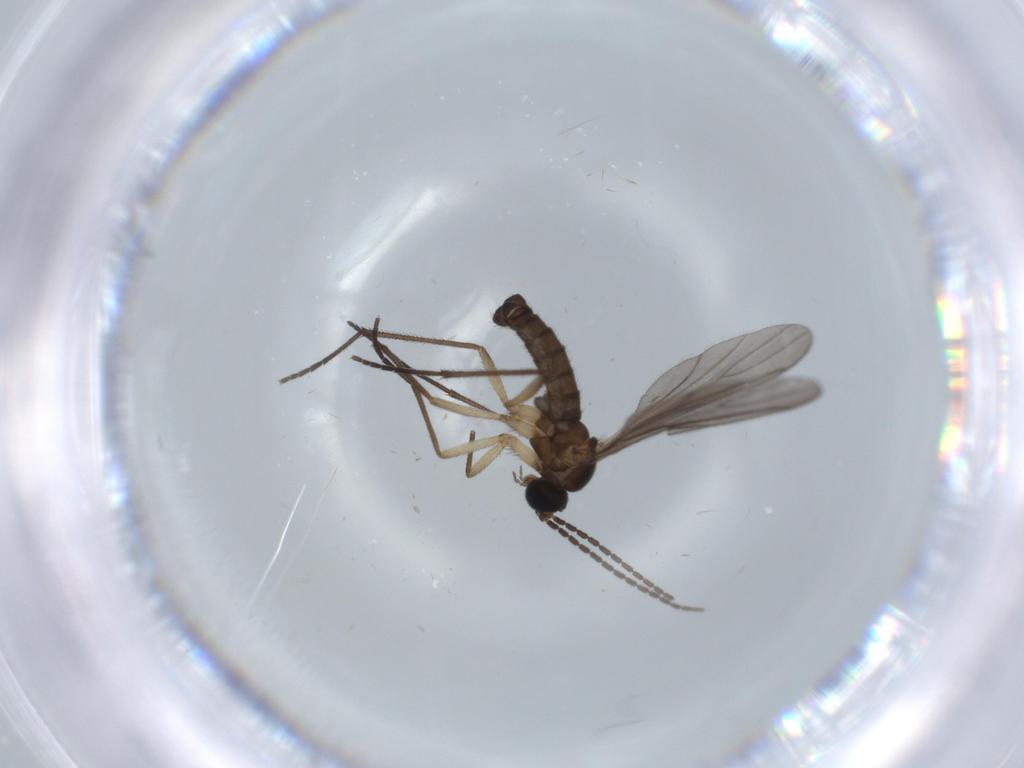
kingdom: Animalia
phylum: Arthropoda
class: Insecta
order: Diptera
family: Sciaridae
